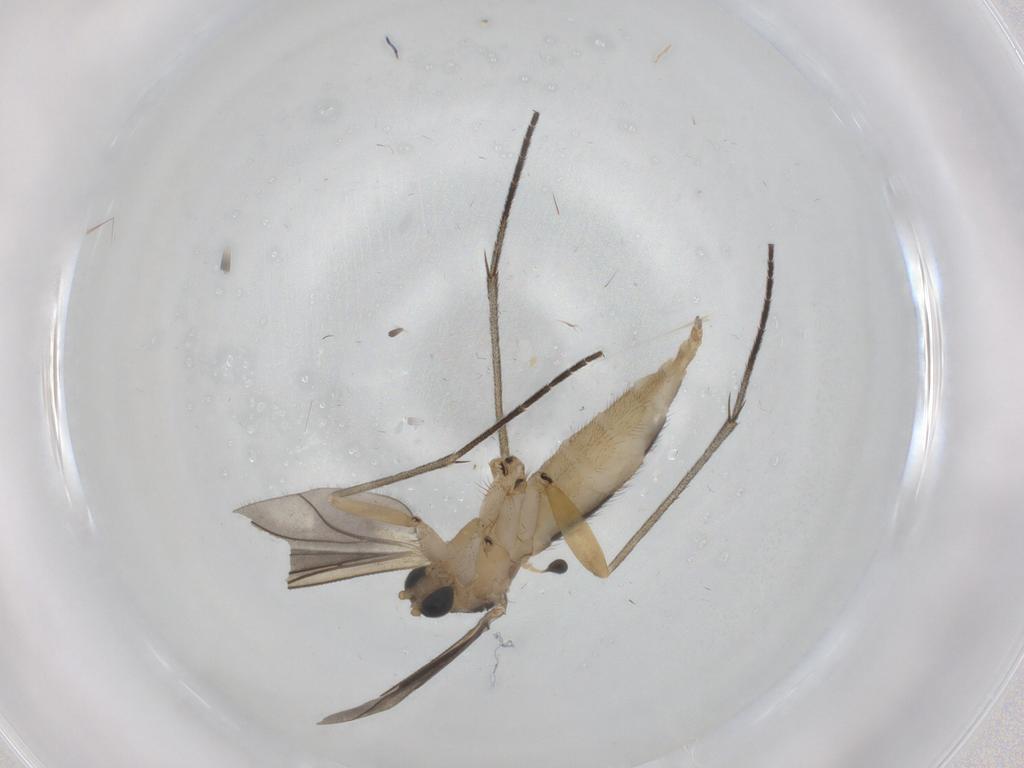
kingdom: Animalia
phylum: Arthropoda
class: Insecta
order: Diptera
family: Sciaridae
